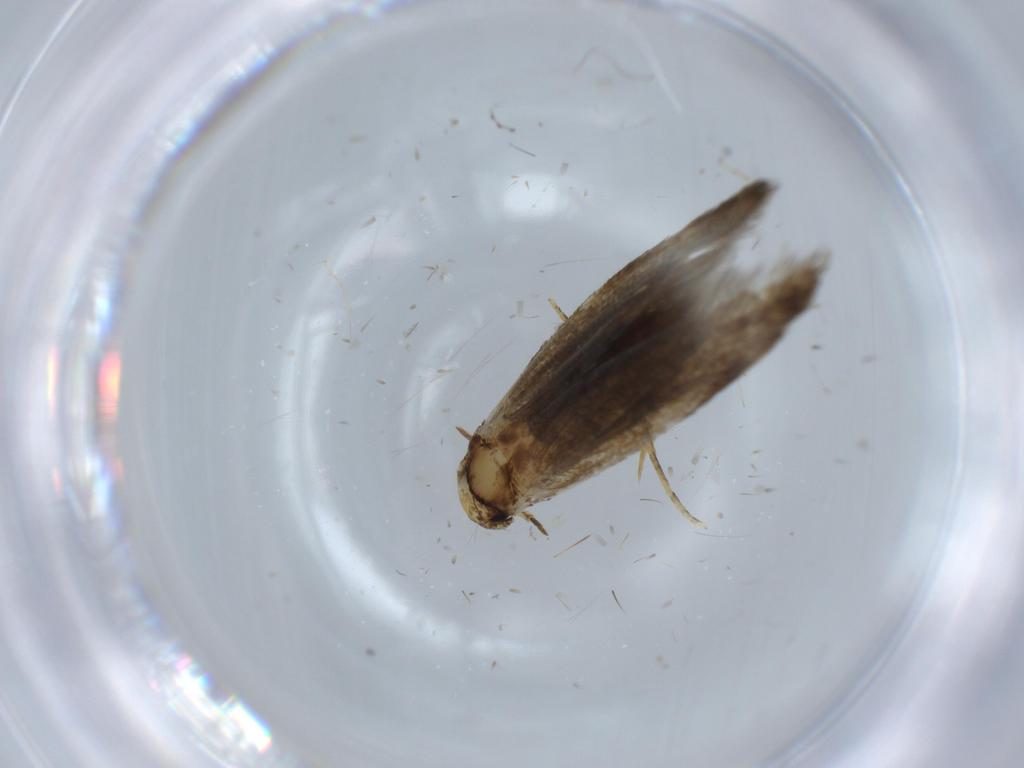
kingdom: Animalia
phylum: Arthropoda
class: Insecta
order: Lepidoptera
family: Tineidae
